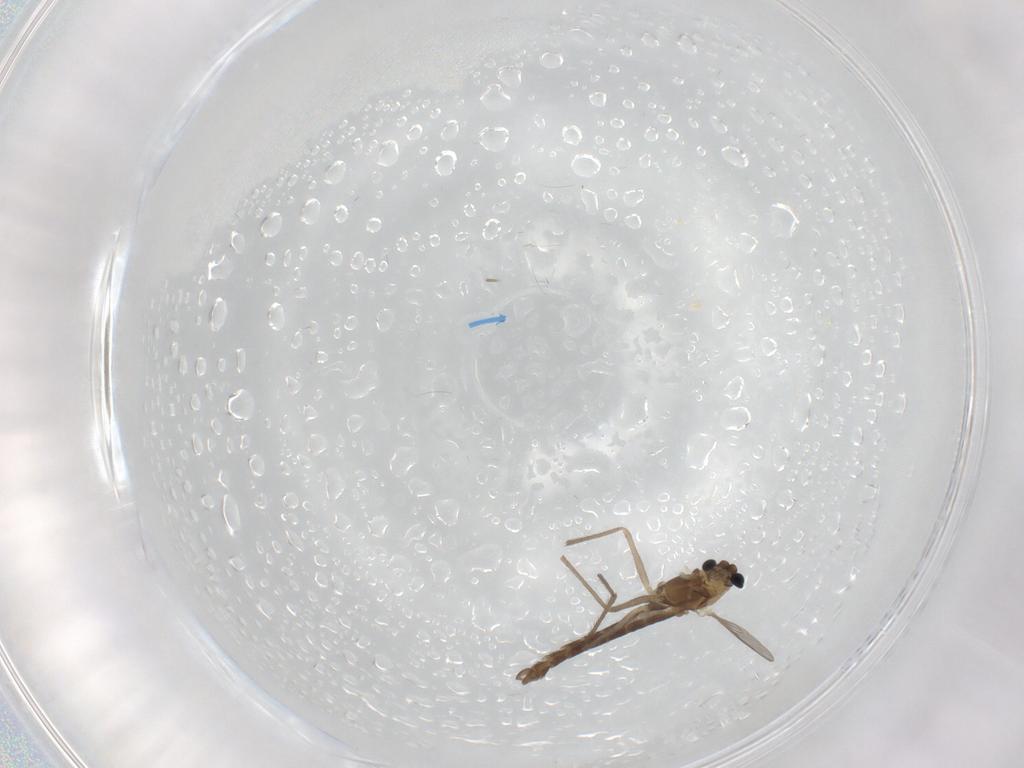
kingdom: Animalia
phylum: Arthropoda
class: Insecta
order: Diptera
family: Chironomidae
